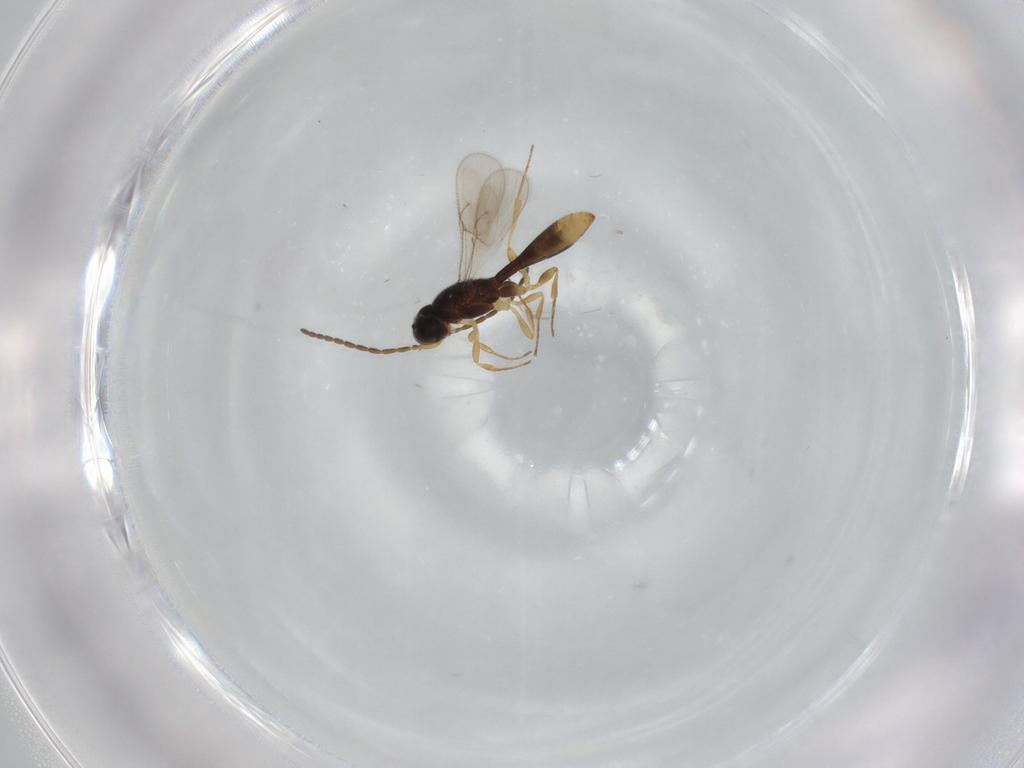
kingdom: Animalia
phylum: Arthropoda
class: Insecta
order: Hymenoptera
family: Scelionidae
